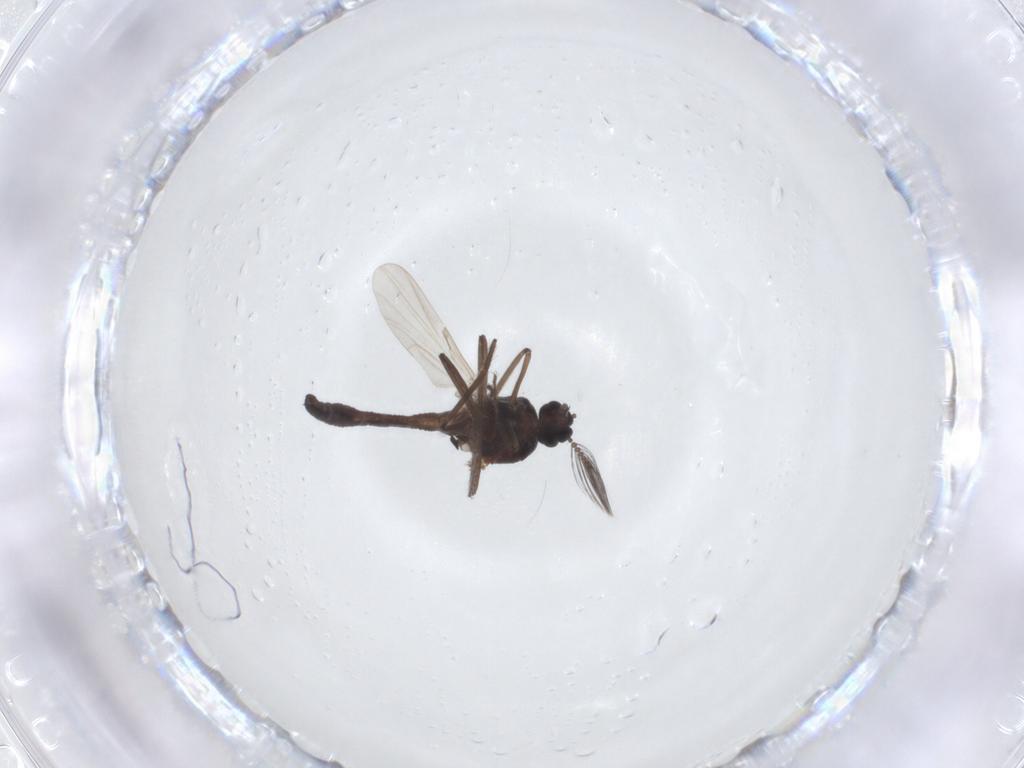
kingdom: Animalia
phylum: Arthropoda
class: Insecta
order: Diptera
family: Ceratopogonidae
